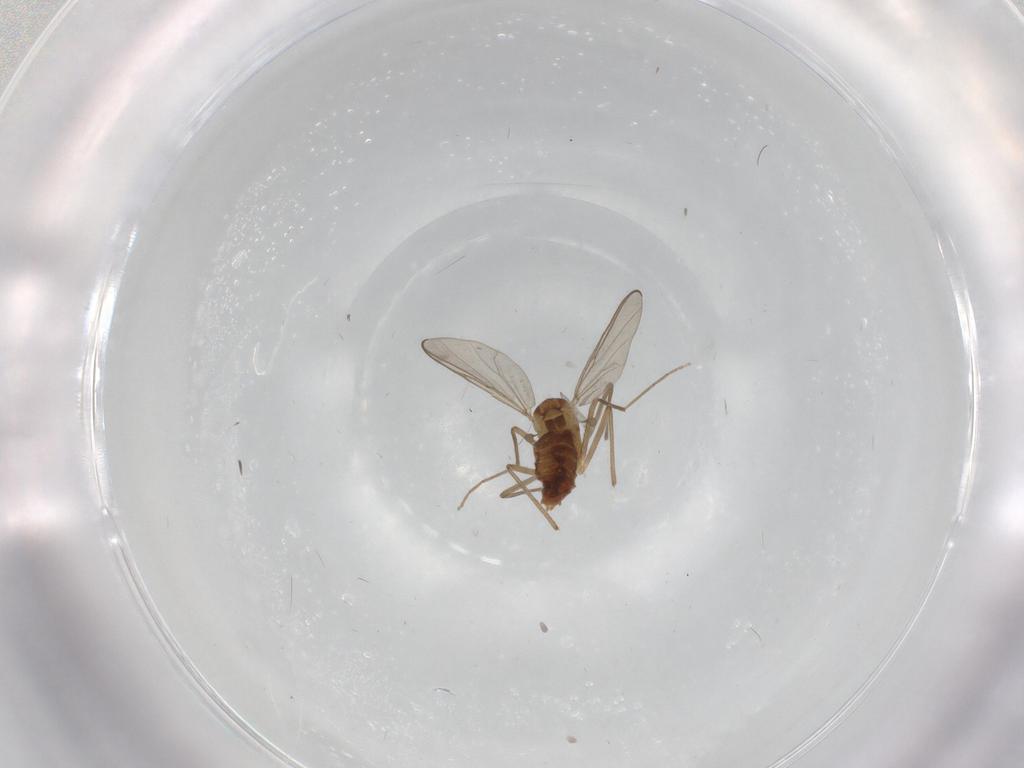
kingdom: Animalia
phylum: Arthropoda
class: Insecta
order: Diptera
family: Chironomidae
